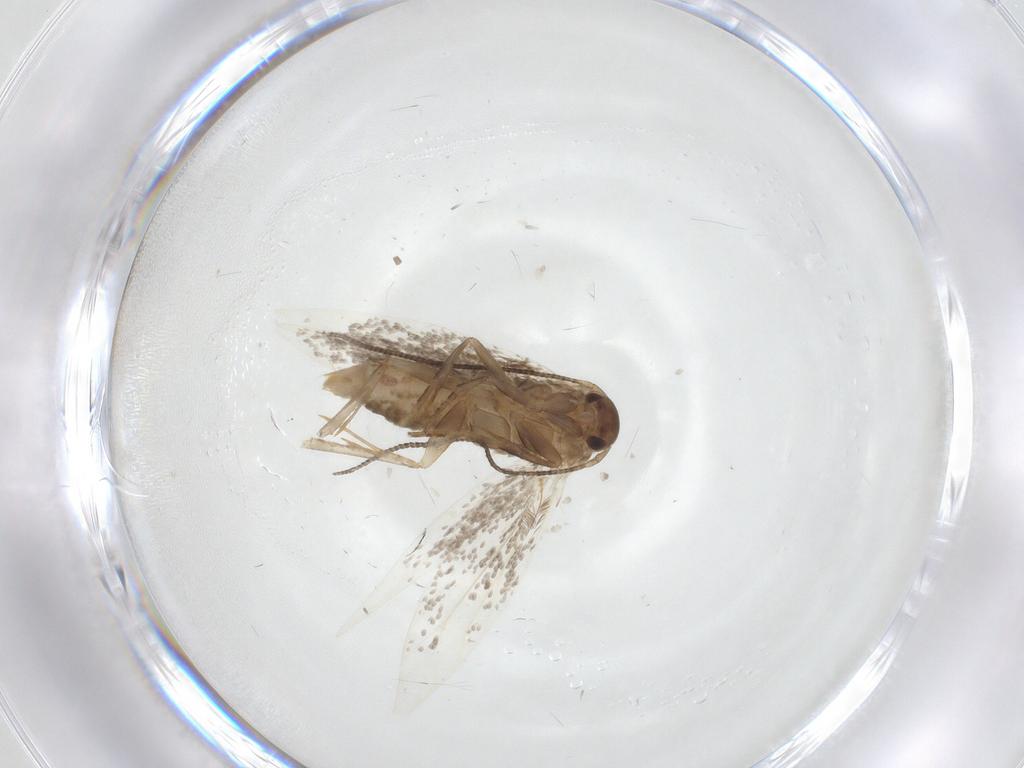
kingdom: Animalia
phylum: Arthropoda
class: Insecta
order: Lepidoptera
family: Elachistidae
